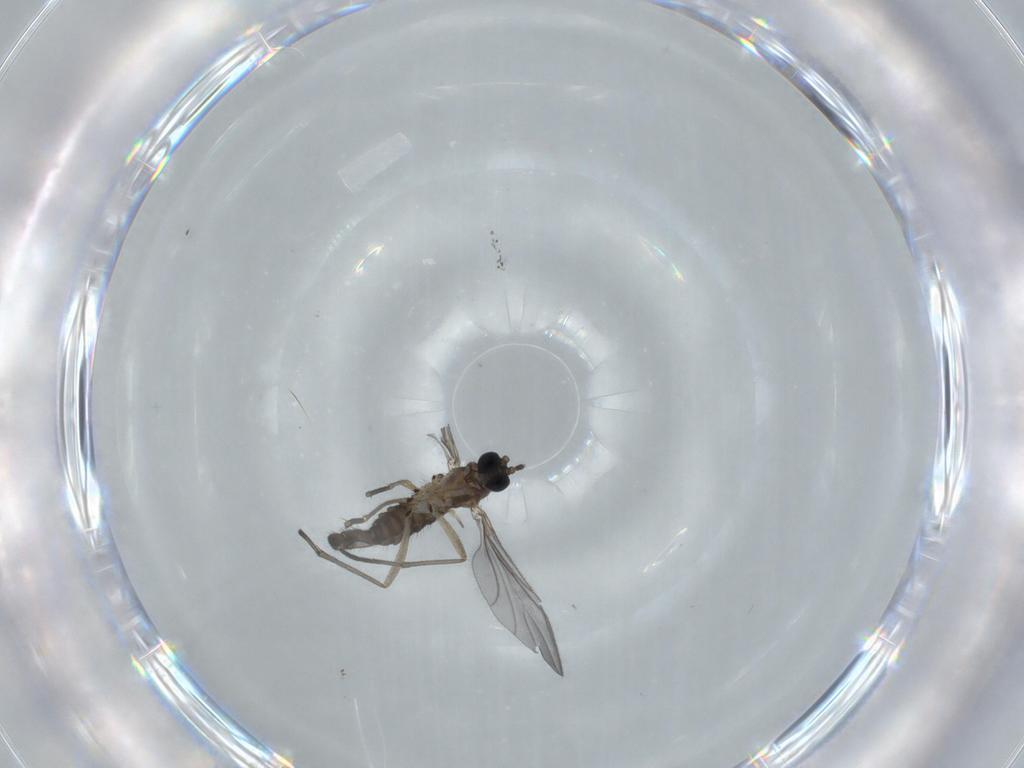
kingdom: Animalia
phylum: Arthropoda
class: Insecta
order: Diptera
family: Sciaridae
